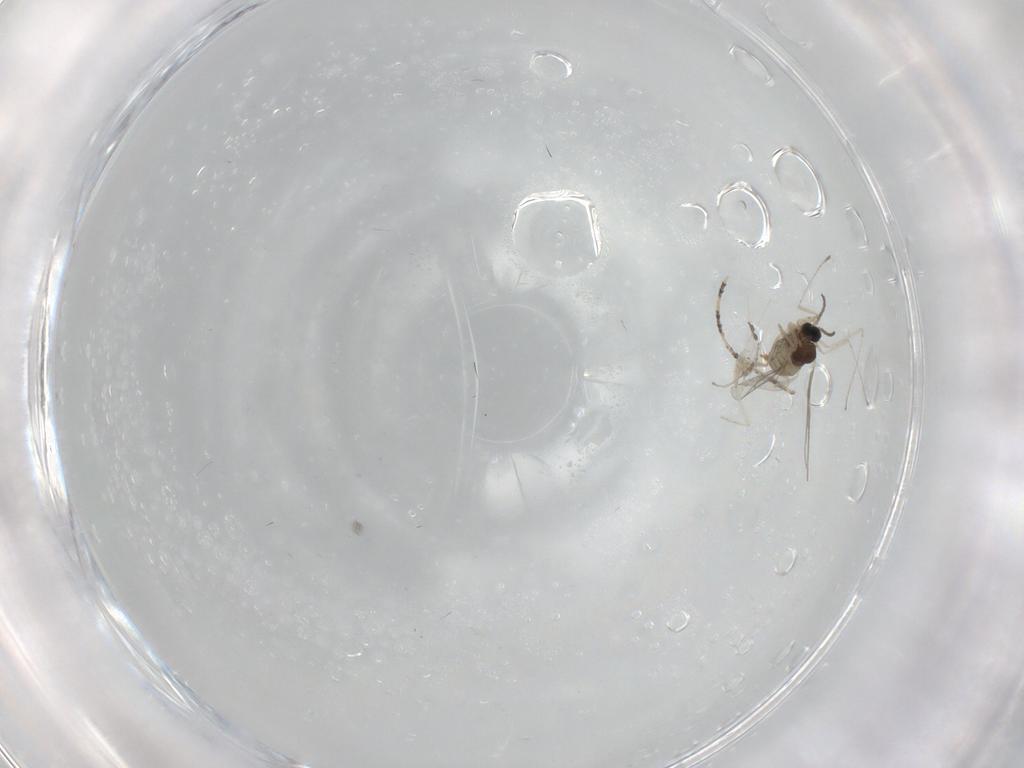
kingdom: Animalia
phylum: Arthropoda
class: Insecta
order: Diptera
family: Cecidomyiidae
